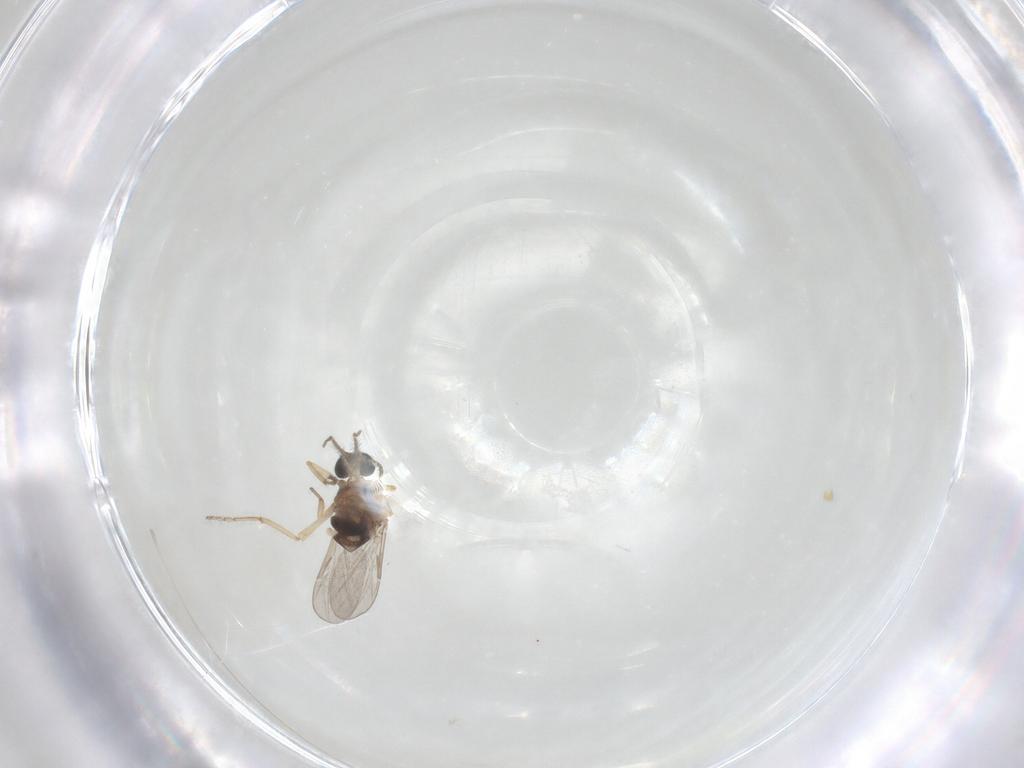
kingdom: Animalia
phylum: Arthropoda
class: Insecta
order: Diptera
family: Ceratopogonidae
